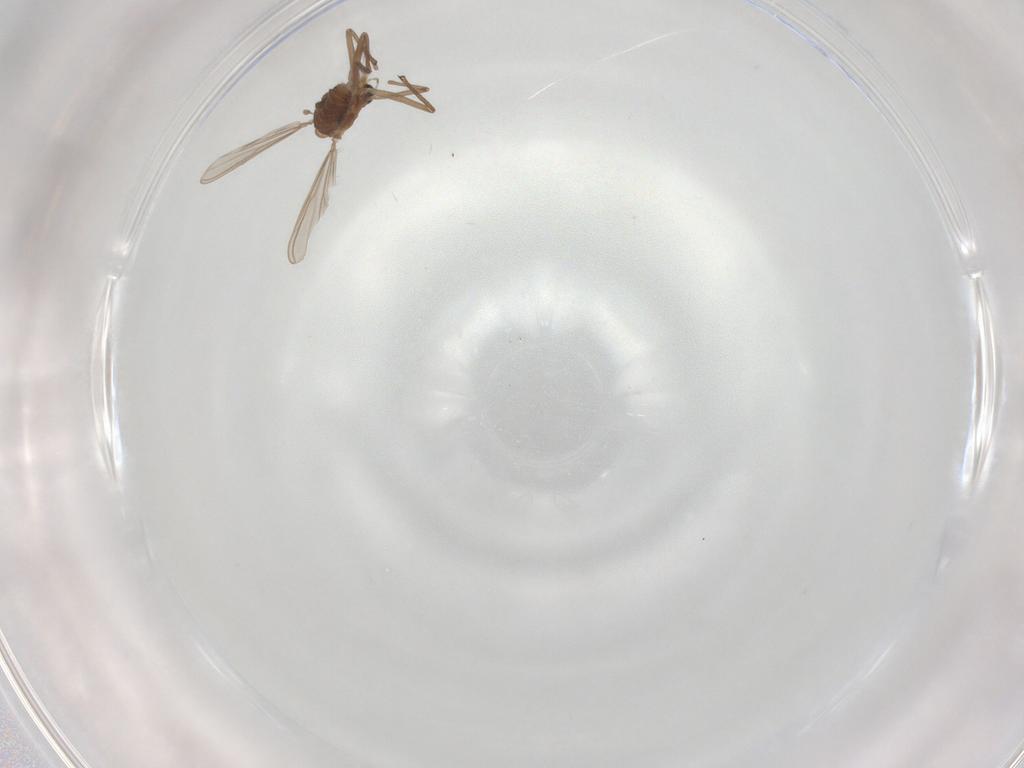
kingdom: Animalia
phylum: Arthropoda
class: Insecta
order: Diptera
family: Chironomidae
